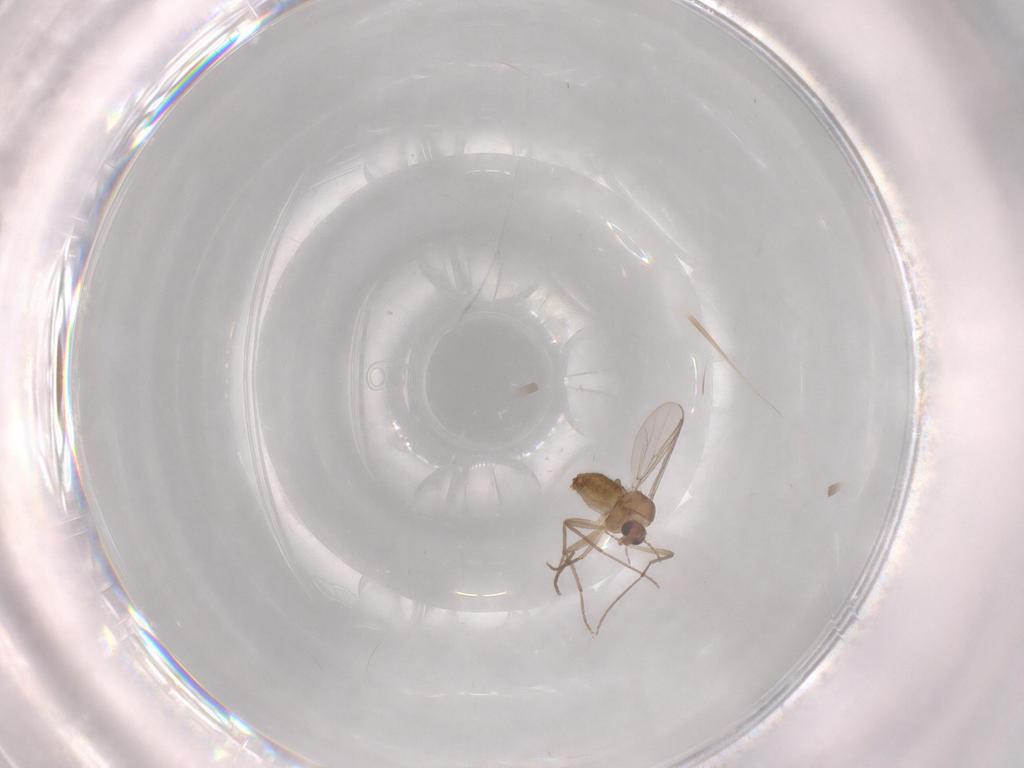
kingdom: Animalia
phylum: Arthropoda
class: Insecta
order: Diptera
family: Chironomidae
